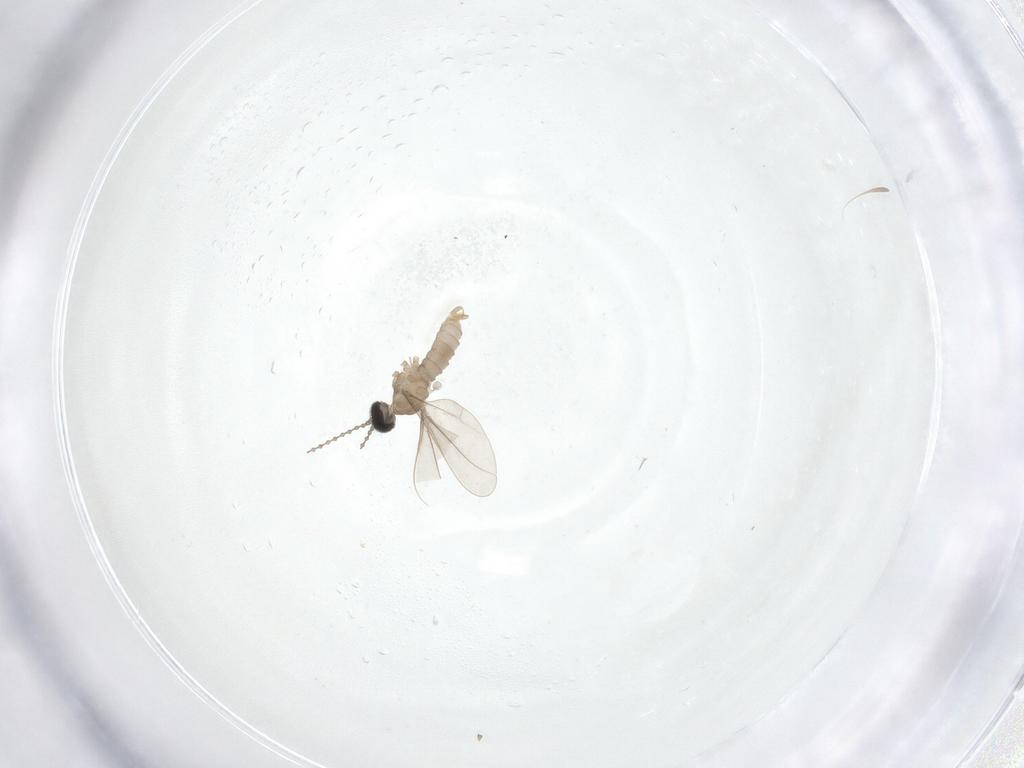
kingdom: Animalia
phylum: Arthropoda
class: Insecta
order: Diptera
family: Cecidomyiidae
